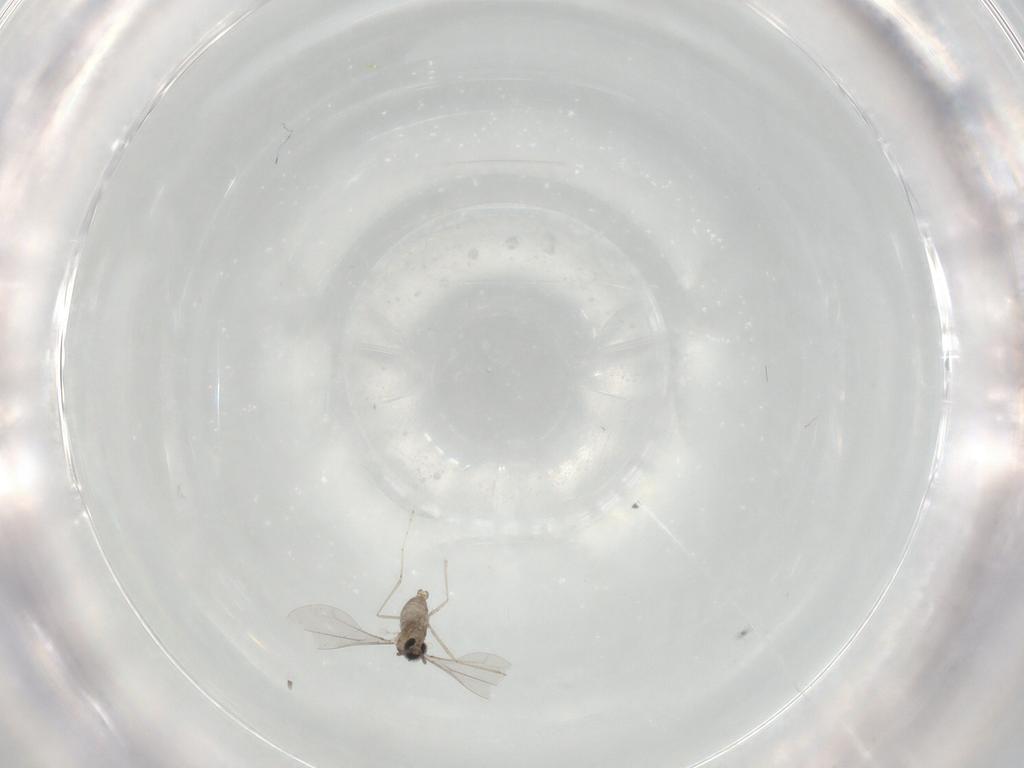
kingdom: Animalia
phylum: Arthropoda
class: Insecta
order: Diptera
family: Cecidomyiidae
